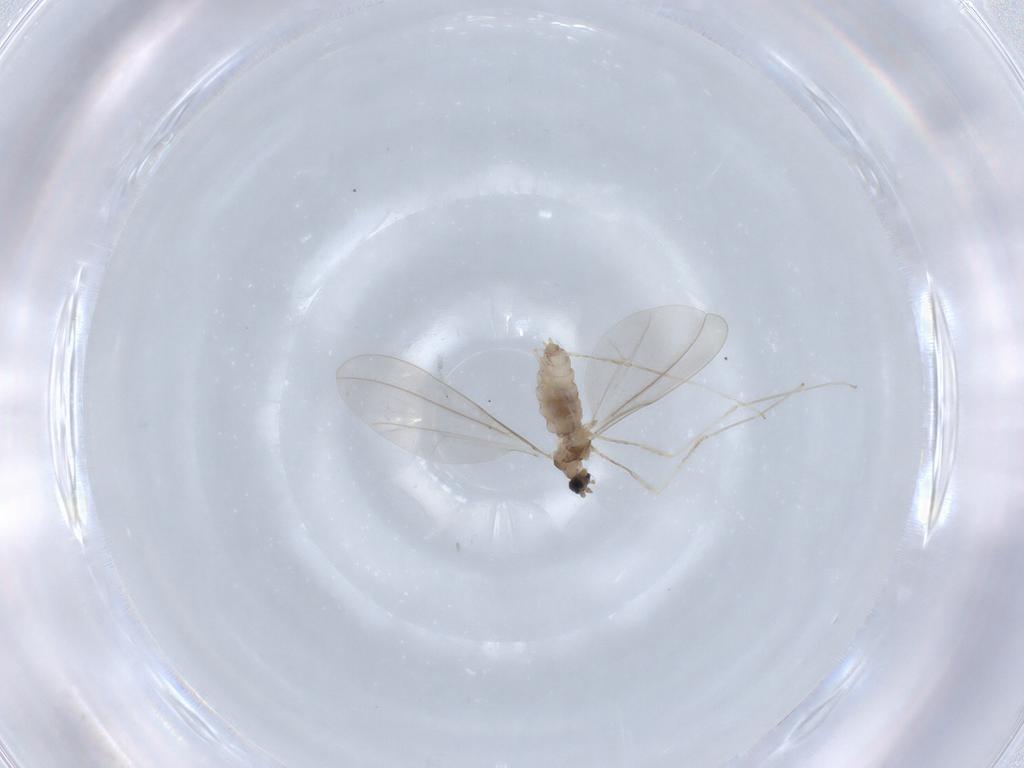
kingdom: Animalia
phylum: Arthropoda
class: Insecta
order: Diptera
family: Cecidomyiidae
